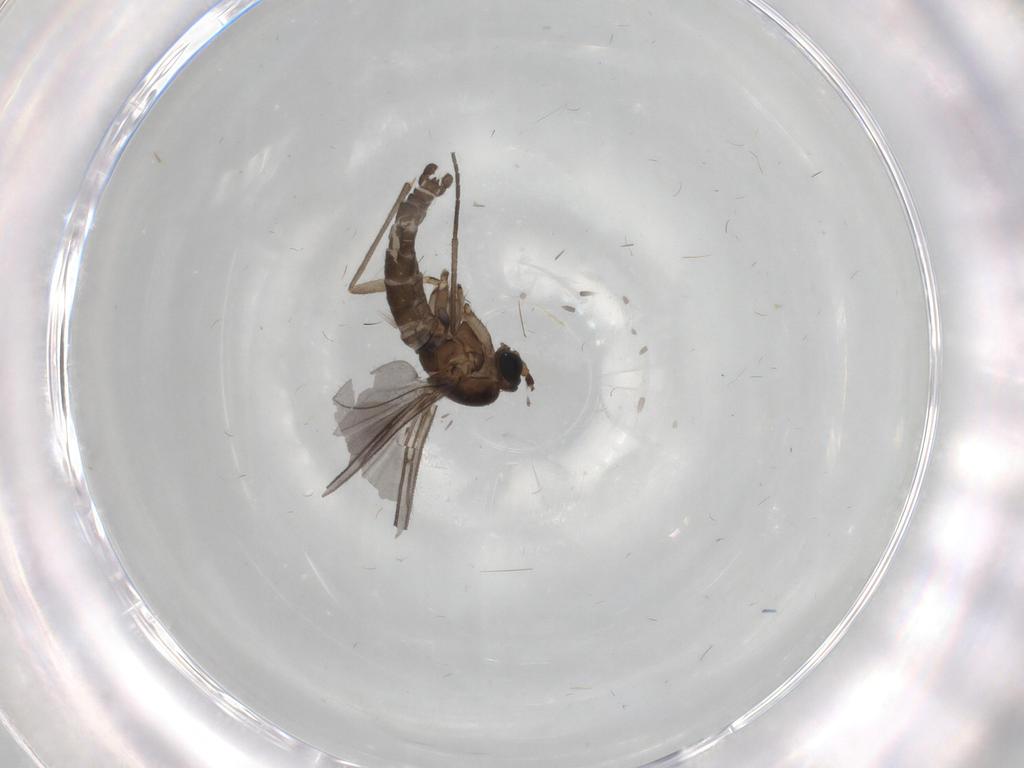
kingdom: Animalia
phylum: Arthropoda
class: Insecta
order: Diptera
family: Sciaridae
